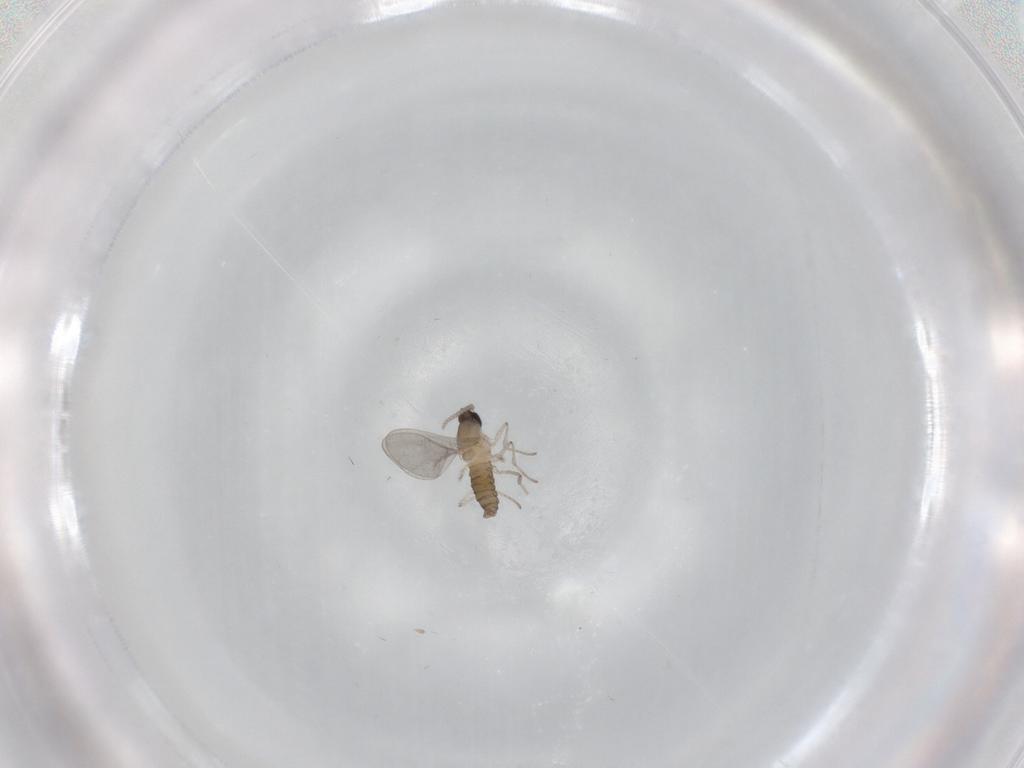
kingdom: Animalia
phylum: Arthropoda
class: Insecta
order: Diptera
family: Cecidomyiidae
